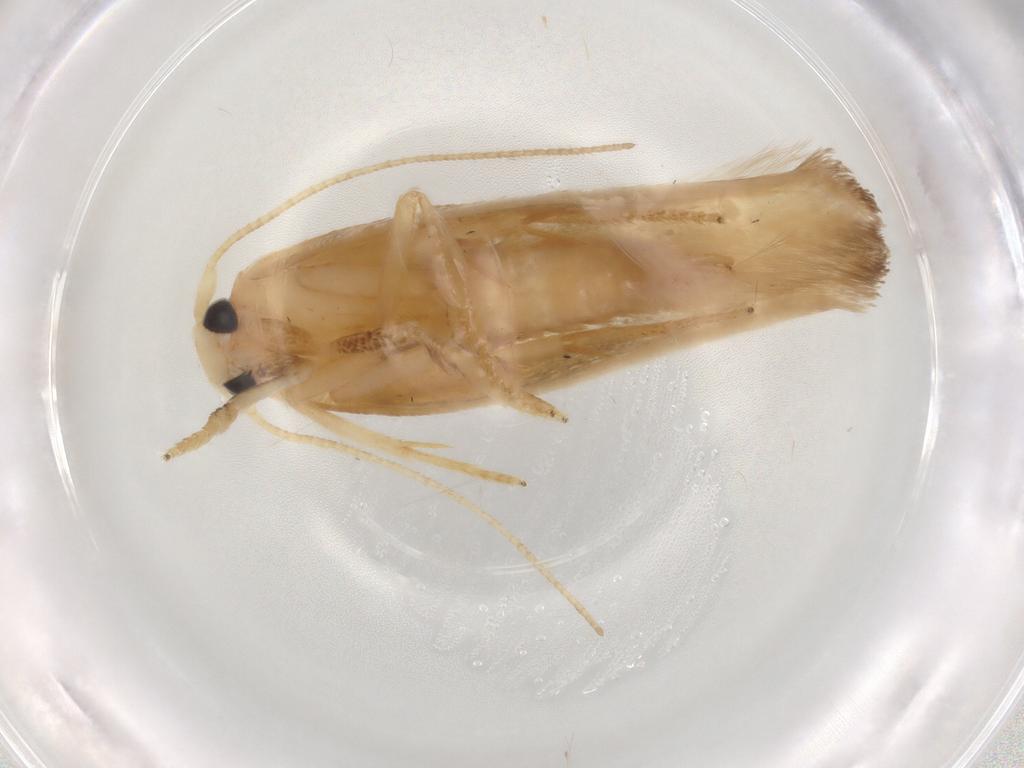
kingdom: Animalia
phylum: Arthropoda
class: Insecta
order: Lepidoptera
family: Geometridae
